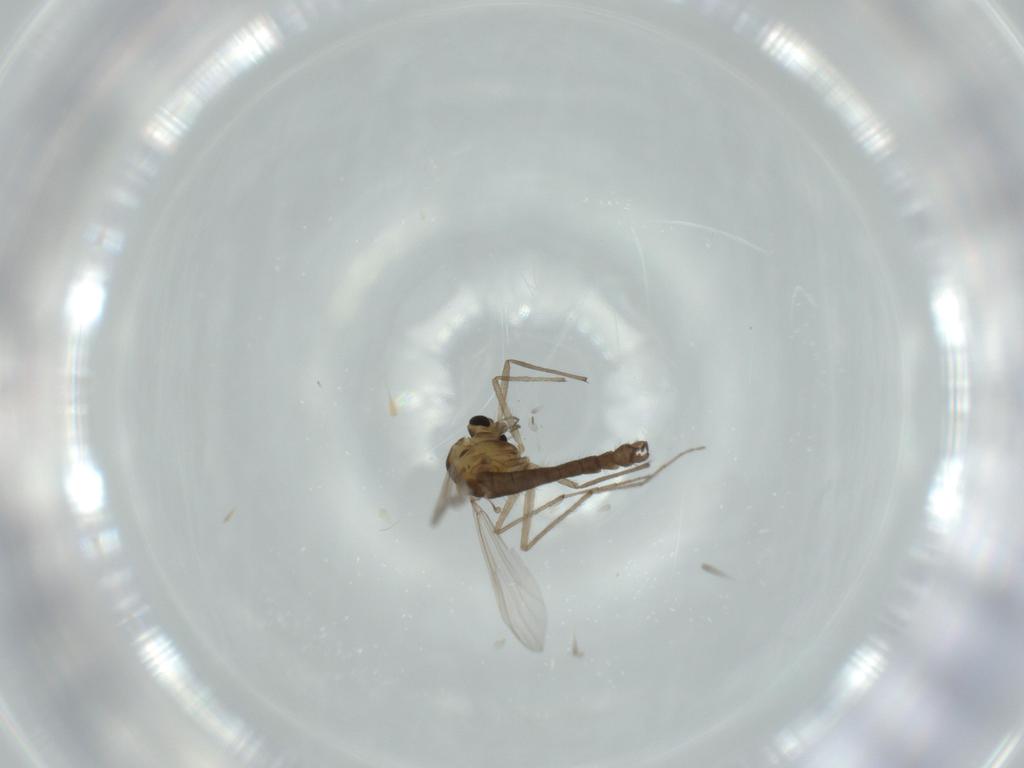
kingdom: Animalia
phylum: Arthropoda
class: Insecta
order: Diptera
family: Chironomidae
